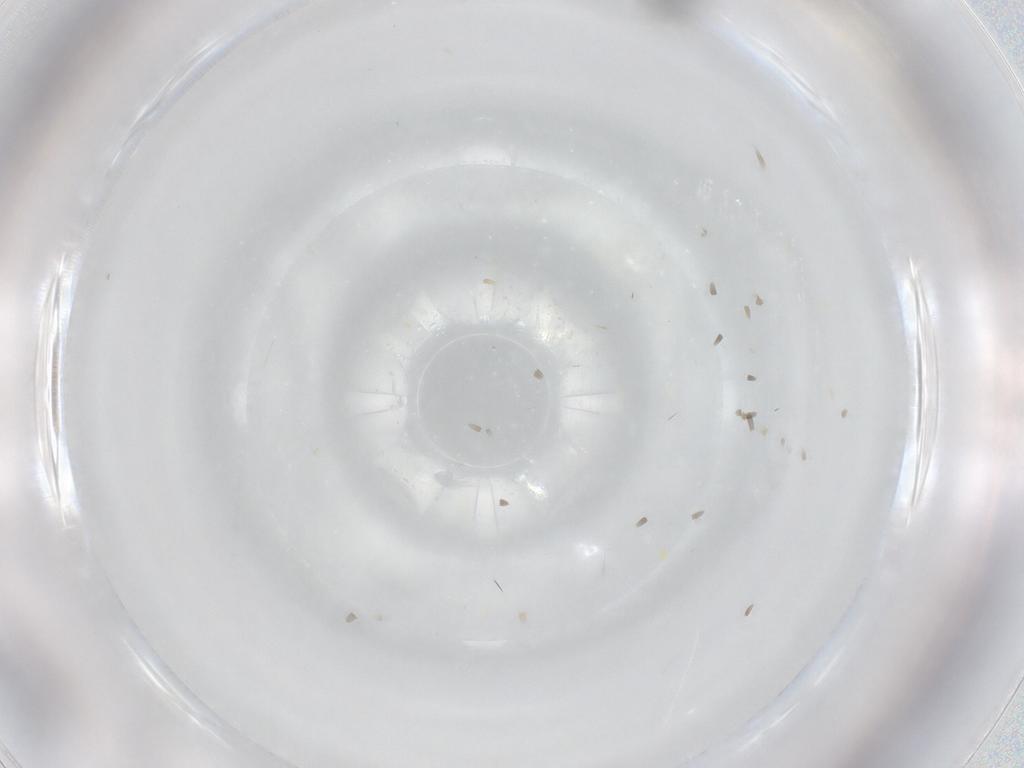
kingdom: Animalia
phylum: Arthropoda
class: Insecta
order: Diptera
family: Sciaridae
